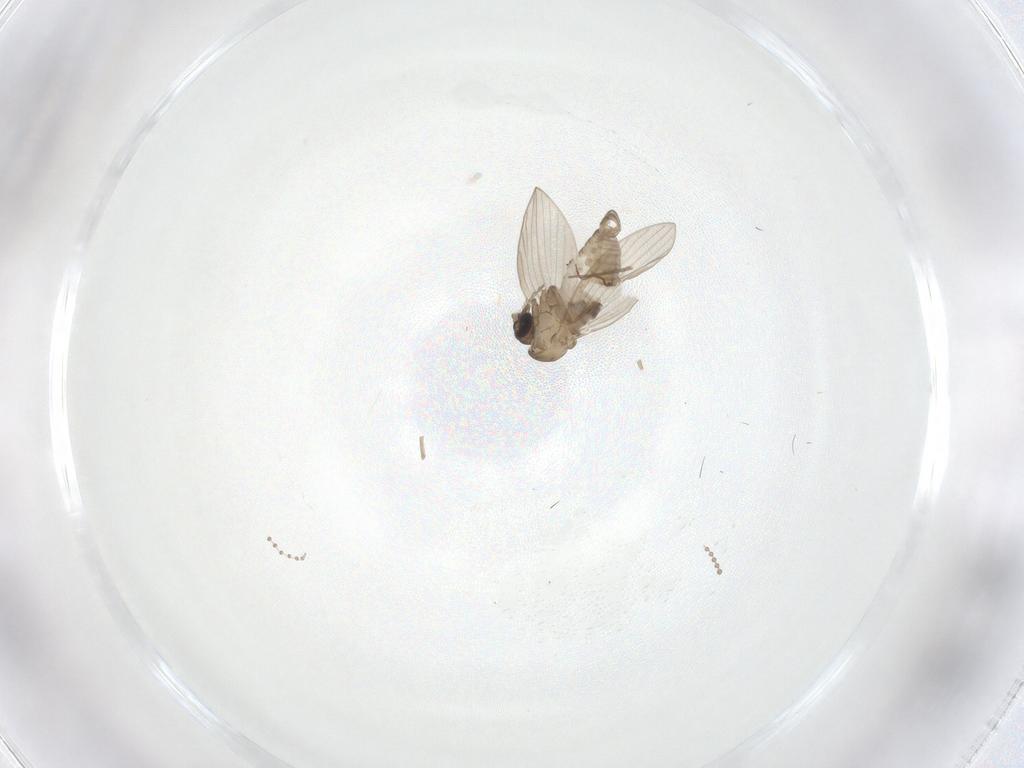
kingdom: Animalia
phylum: Arthropoda
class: Insecta
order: Diptera
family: Psychodidae
